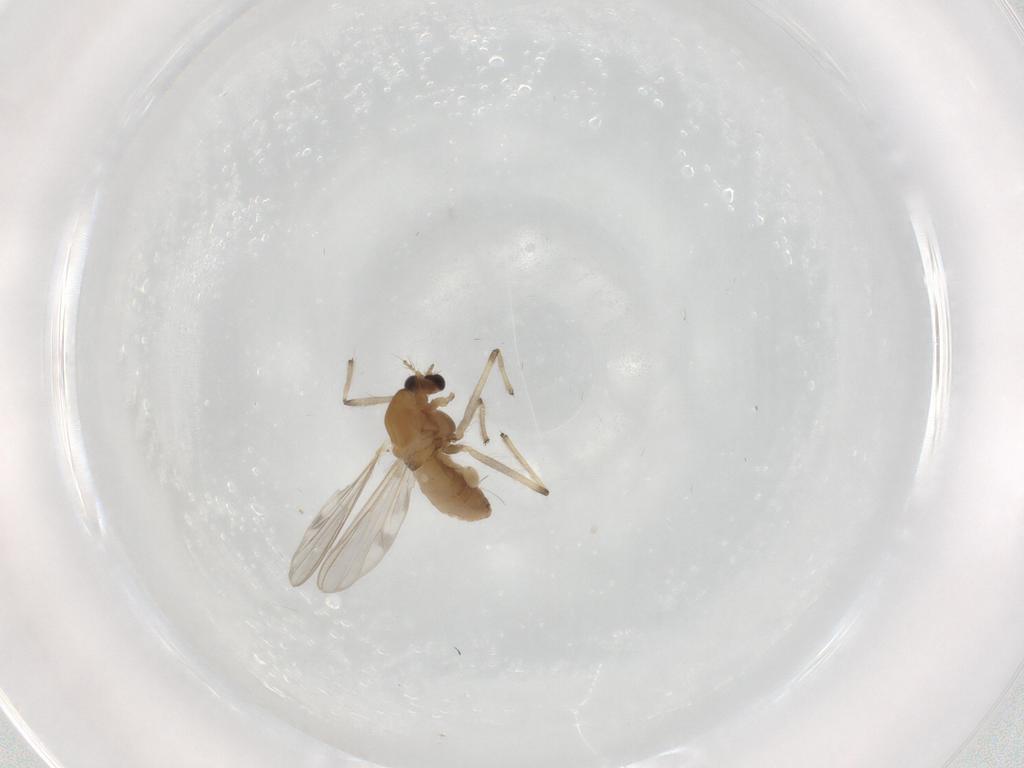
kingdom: Animalia
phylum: Arthropoda
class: Insecta
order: Diptera
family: Chironomidae
